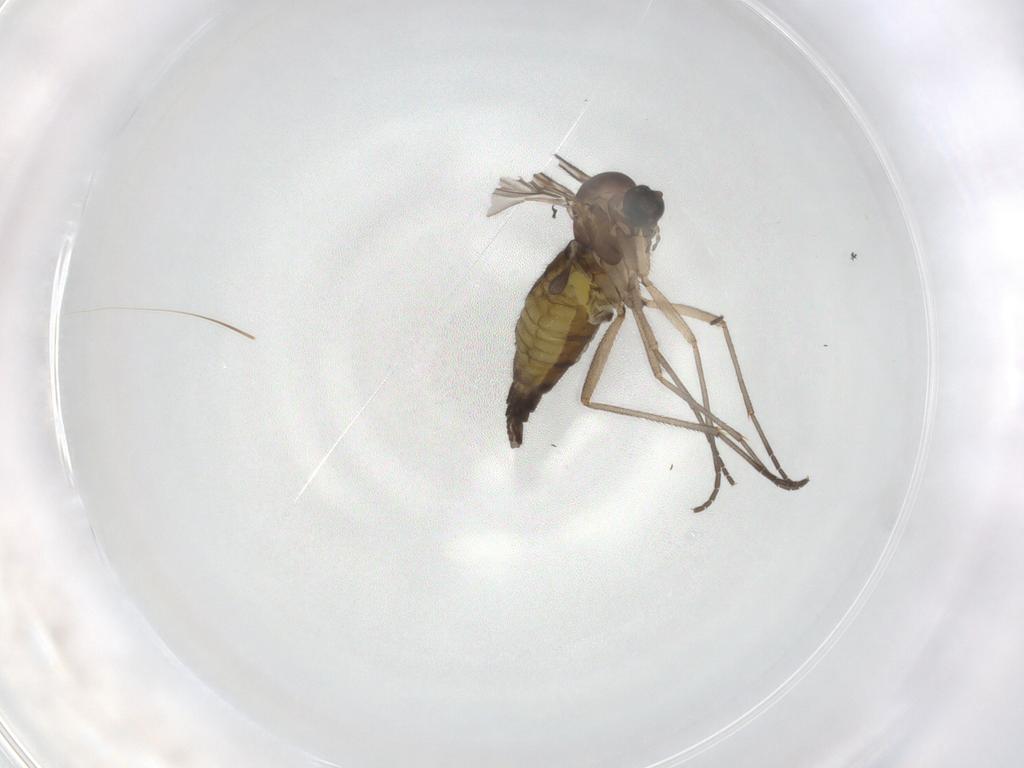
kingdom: Animalia
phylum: Arthropoda
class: Insecta
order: Diptera
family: Sciaridae
